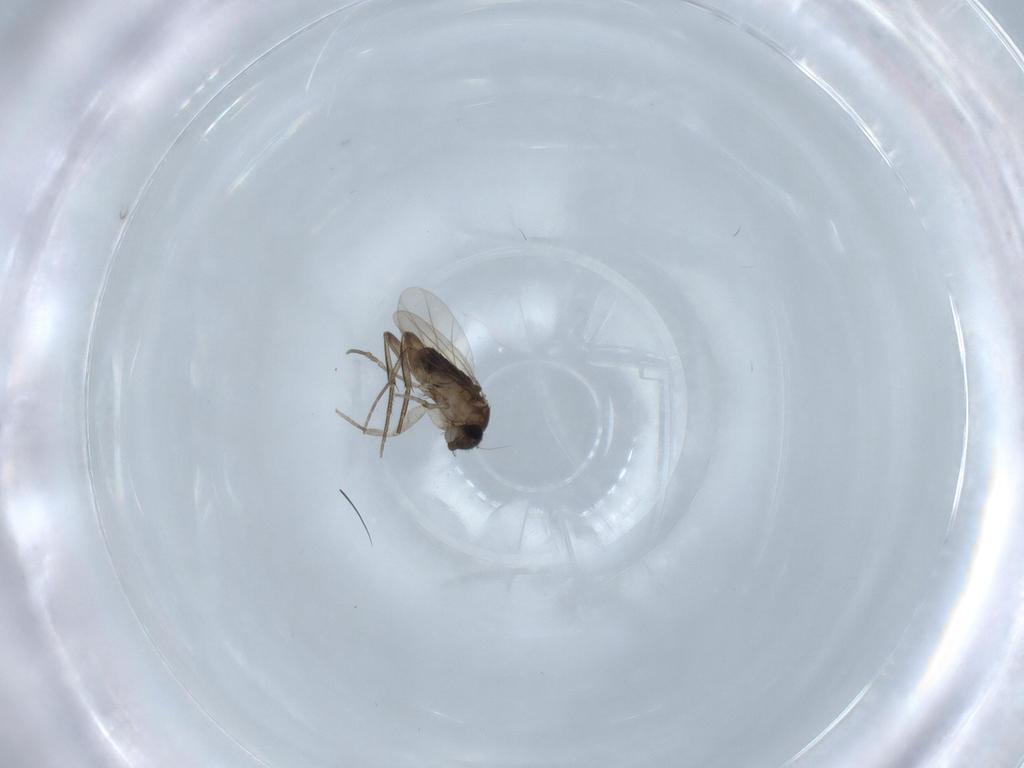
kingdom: Animalia
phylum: Arthropoda
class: Insecta
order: Diptera
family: Phoridae
